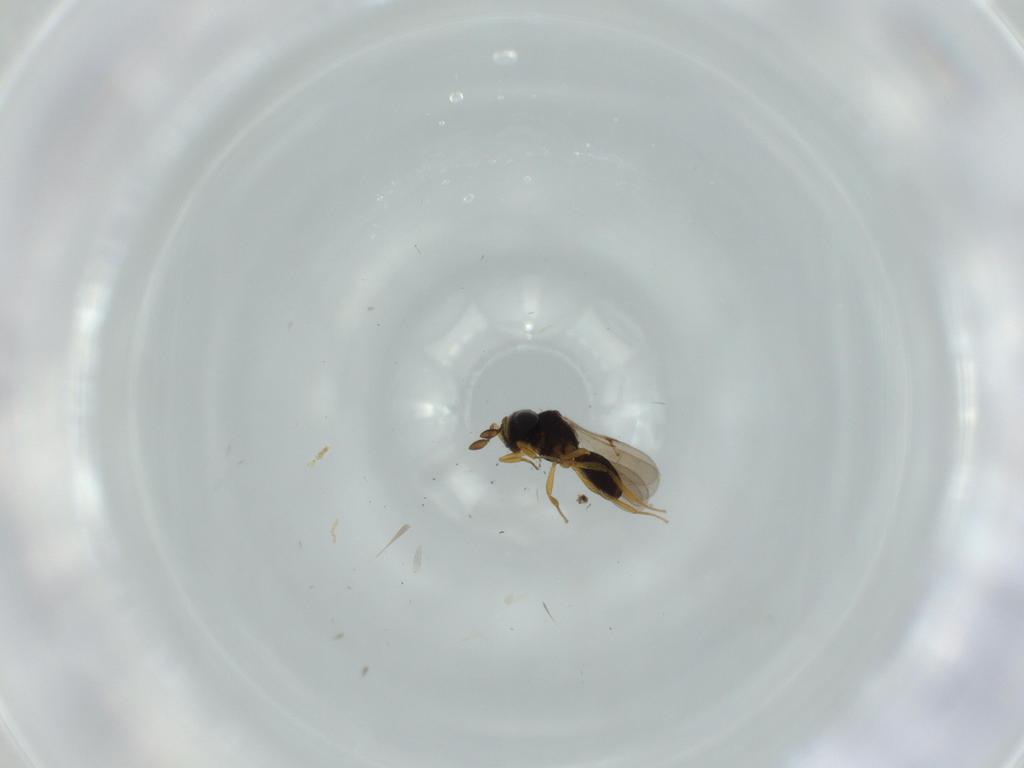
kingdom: Animalia
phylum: Arthropoda
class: Insecta
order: Hymenoptera
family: Scelionidae
